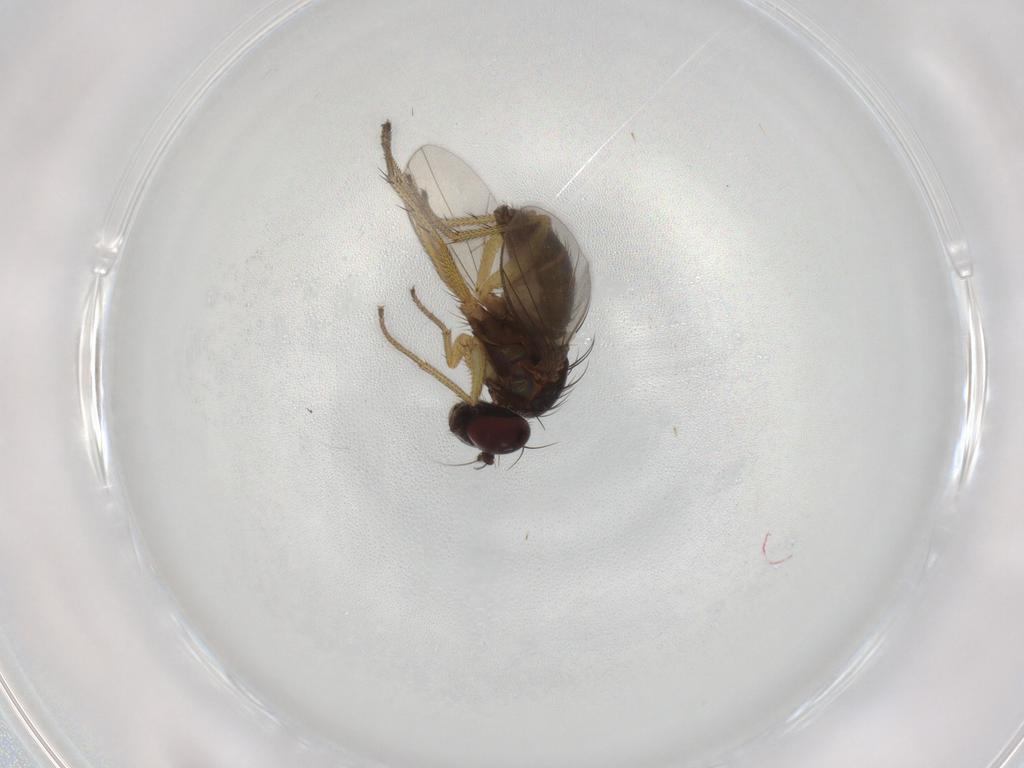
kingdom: Animalia
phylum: Arthropoda
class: Insecta
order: Diptera
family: Dolichopodidae
